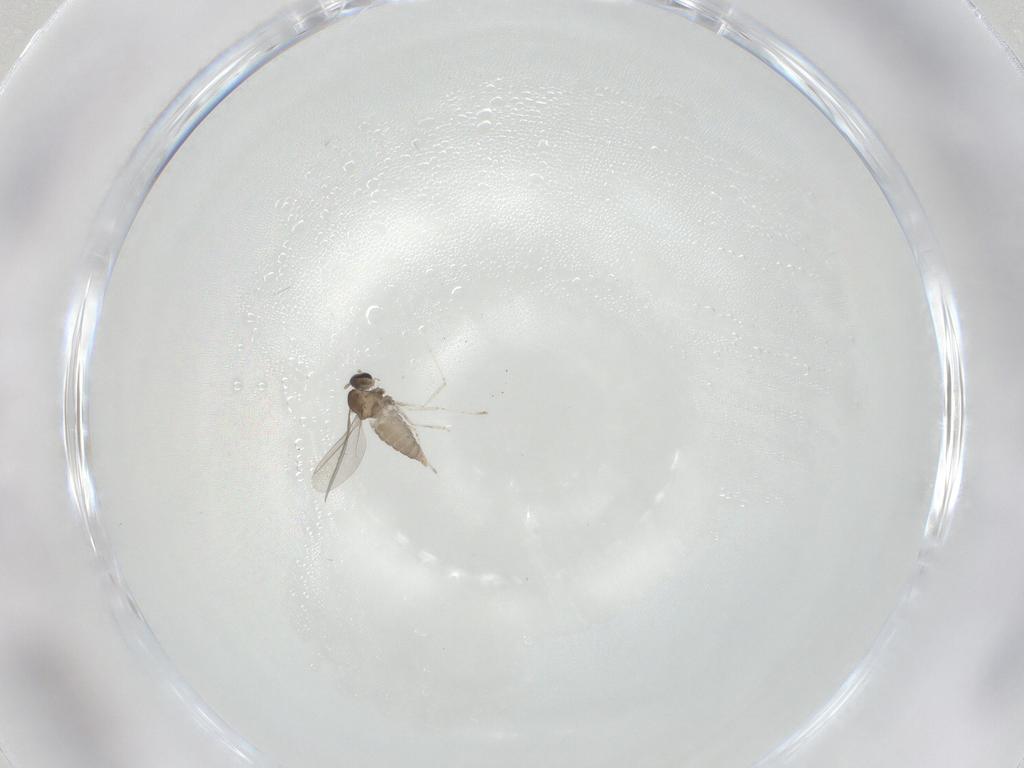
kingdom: Animalia
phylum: Arthropoda
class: Insecta
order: Diptera
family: Cecidomyiidae
